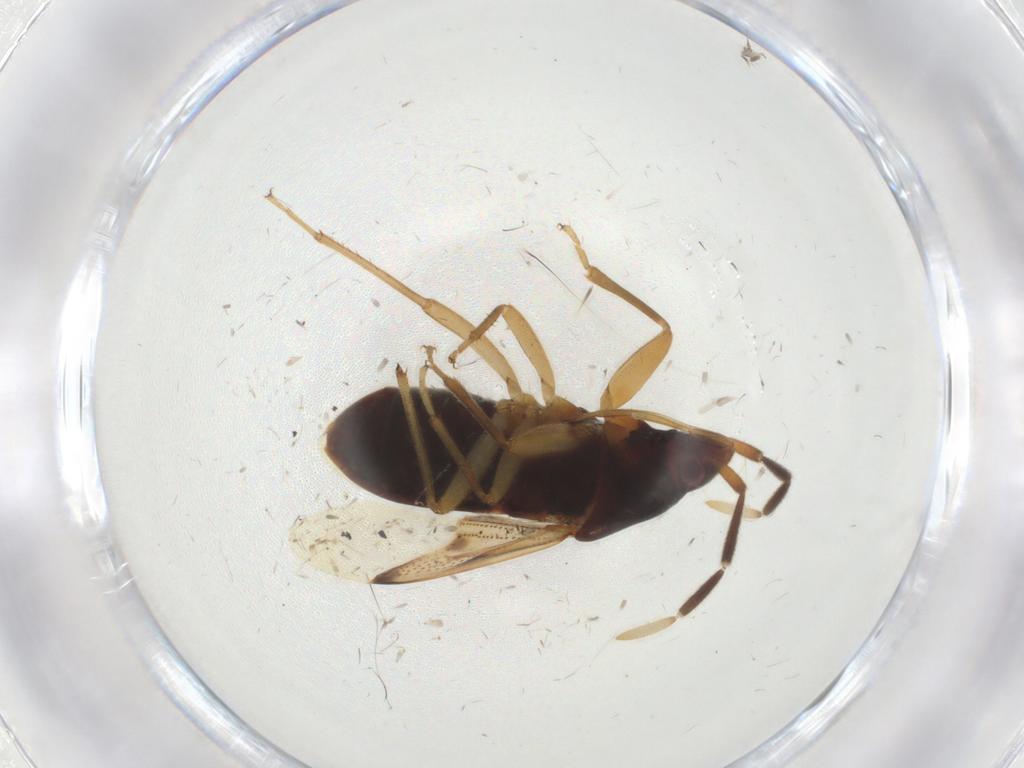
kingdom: Animalia
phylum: Arthropoda
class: Insecta
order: Hemiptera
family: Rhyparochromidae
